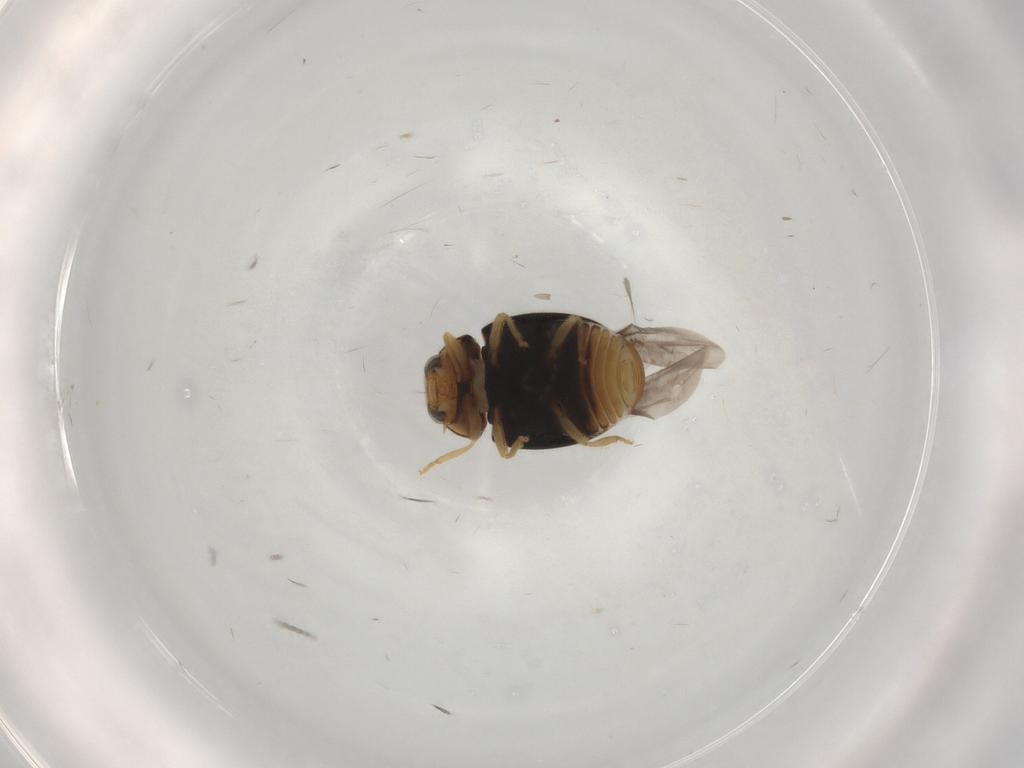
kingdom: Animalia
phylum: Arthropoda
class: Insecta
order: Coleoptera
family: Coccinellidae
